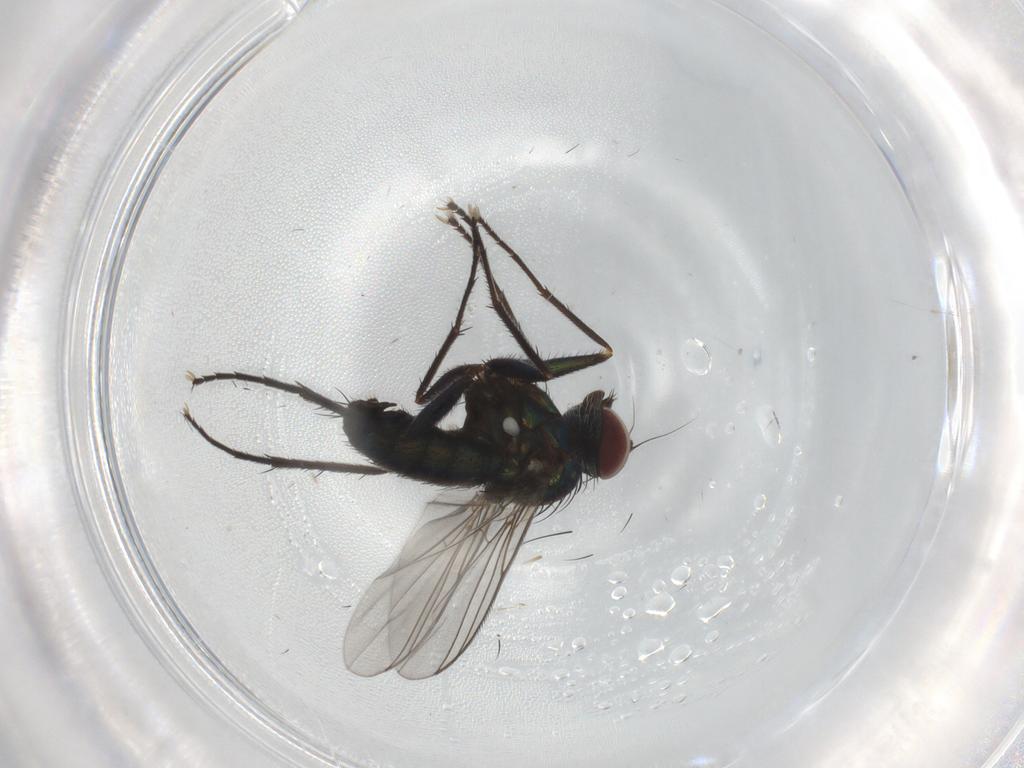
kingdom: Animalia
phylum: Arthropoda
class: Insecta
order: Diptera
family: Dolichopodidae
